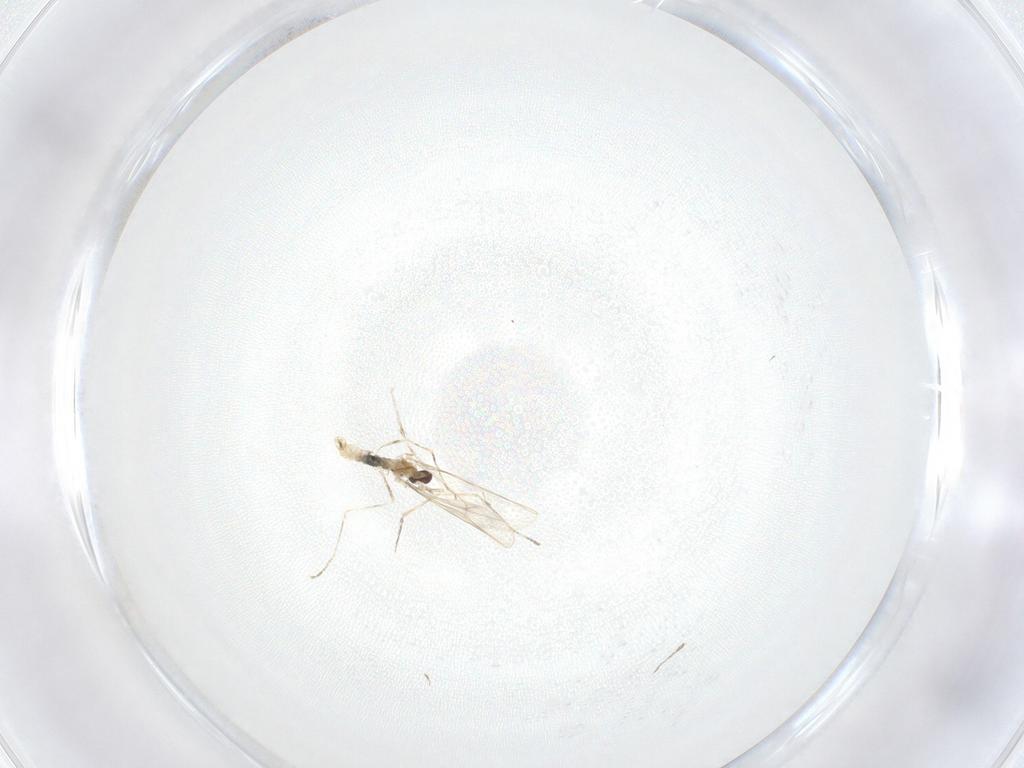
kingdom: Animalia
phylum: Arthropoda
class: Insecta
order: Diptera
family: Cecidomyiidae
